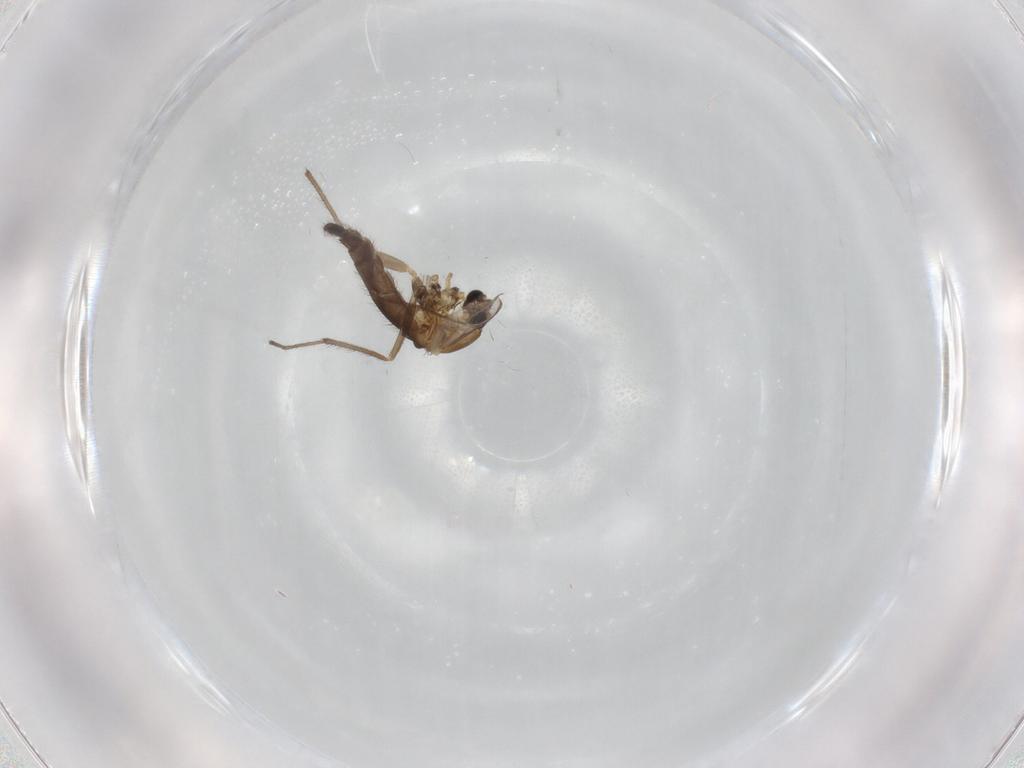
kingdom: Animalia
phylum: Arthropoda
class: Insecta
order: Diptera
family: Chironomidae
